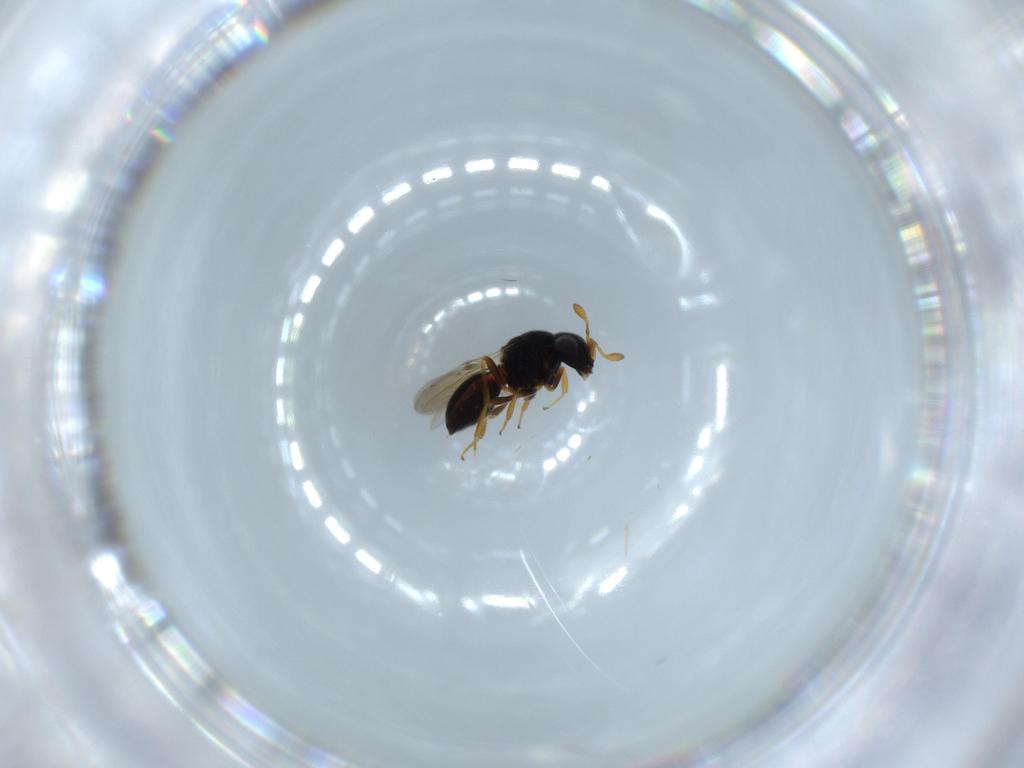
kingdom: Animalia
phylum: Arthropoda
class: Insecta
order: Hymenoptera
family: Scelionidae
